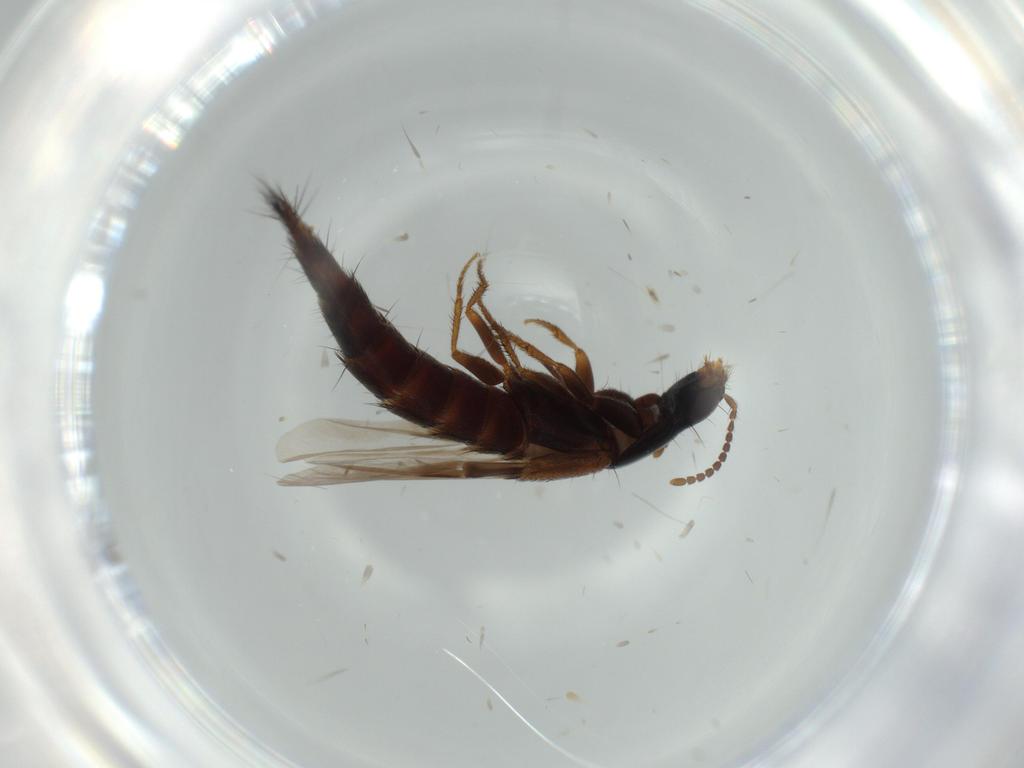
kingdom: Animalia
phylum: Arthropoda
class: Insecta
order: Coleoptera
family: Staphylinidae
